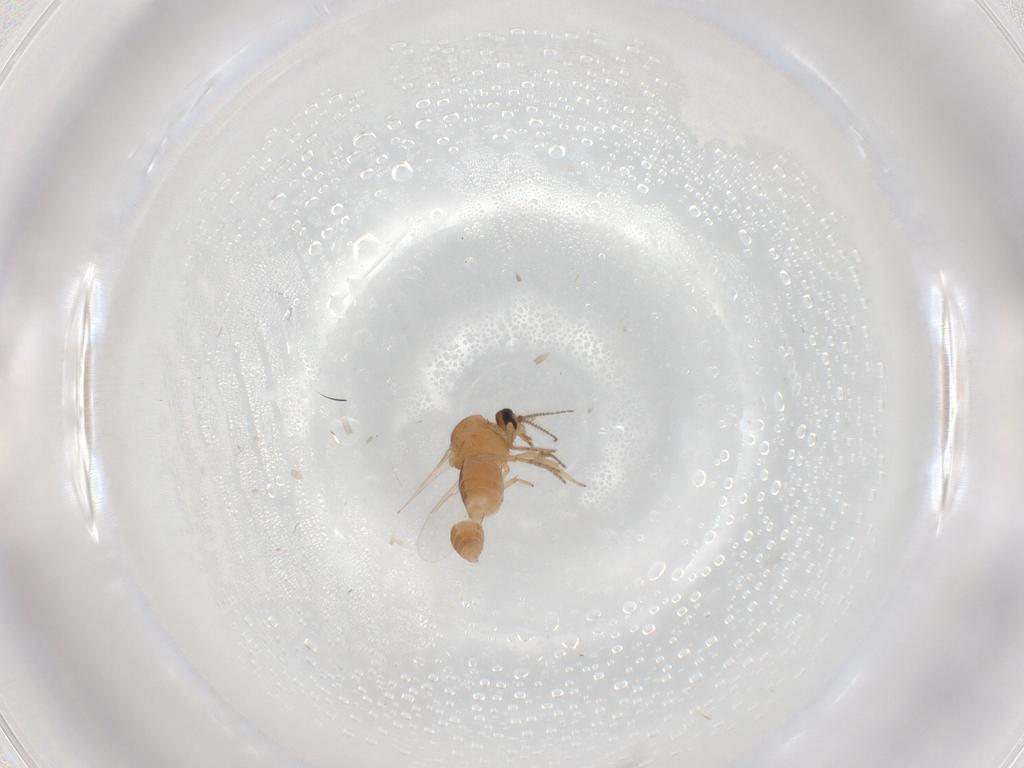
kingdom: Animalia
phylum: Arthropoda
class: Insecta
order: Diptera
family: Ceratopogonidae
